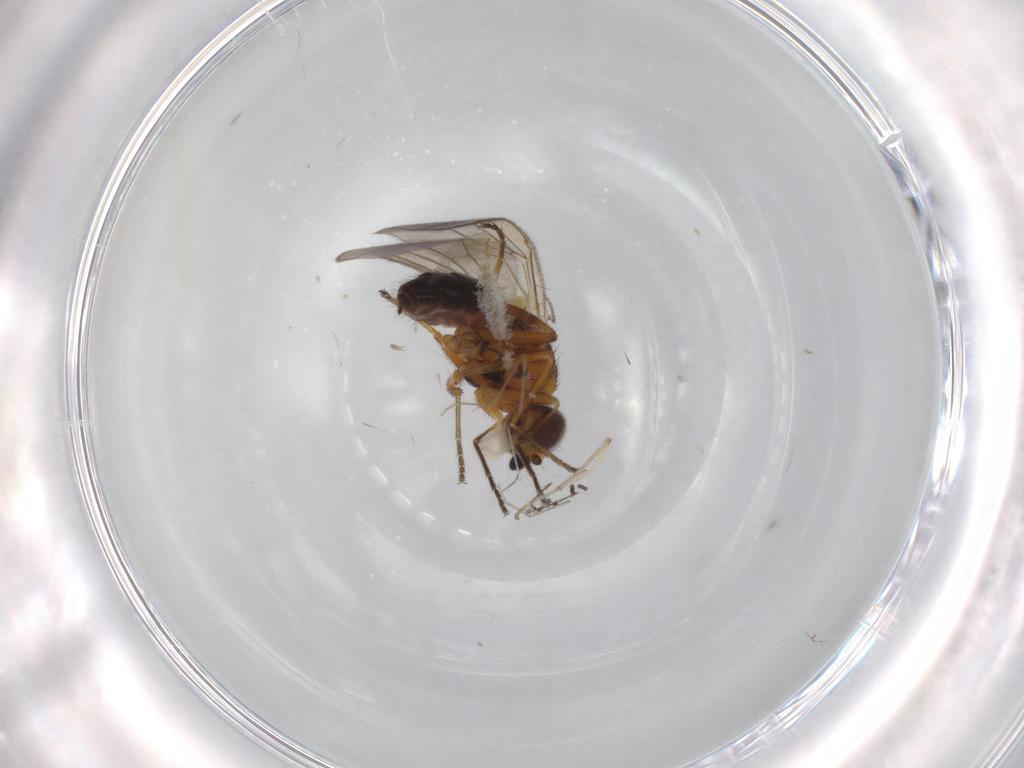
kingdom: Animalia
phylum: Arthropoda
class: Insecta
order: Diptera
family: Chloropidae
